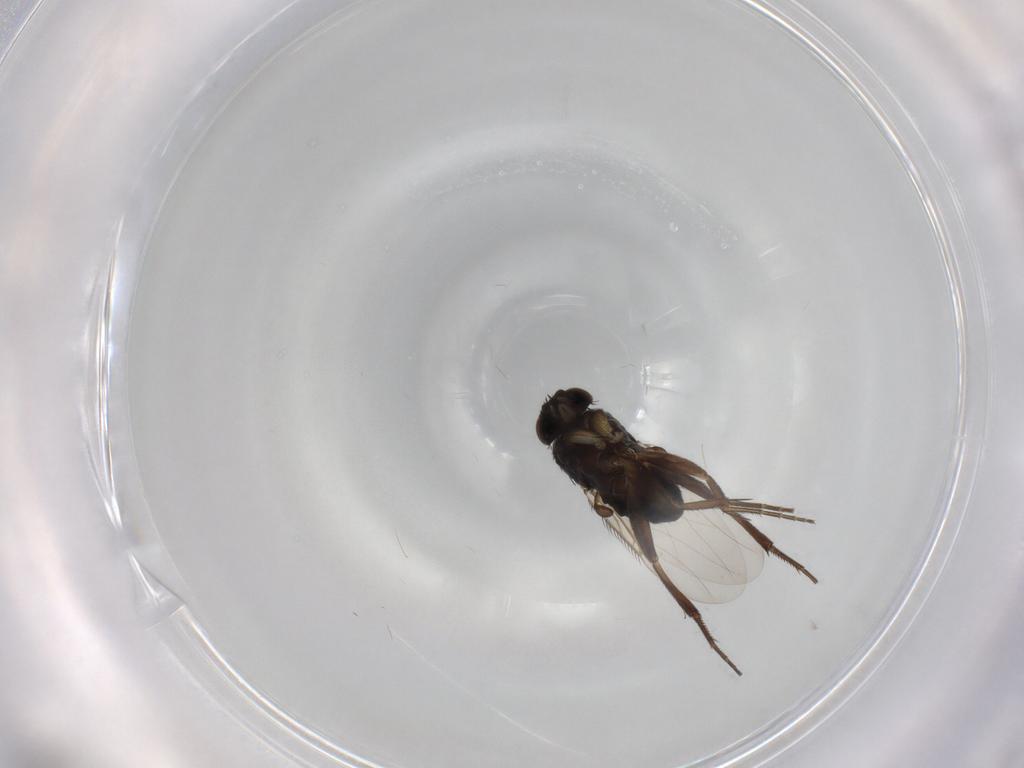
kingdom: Animalia
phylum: Arthropoda
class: Insecta
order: Diptera
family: Phoridae
